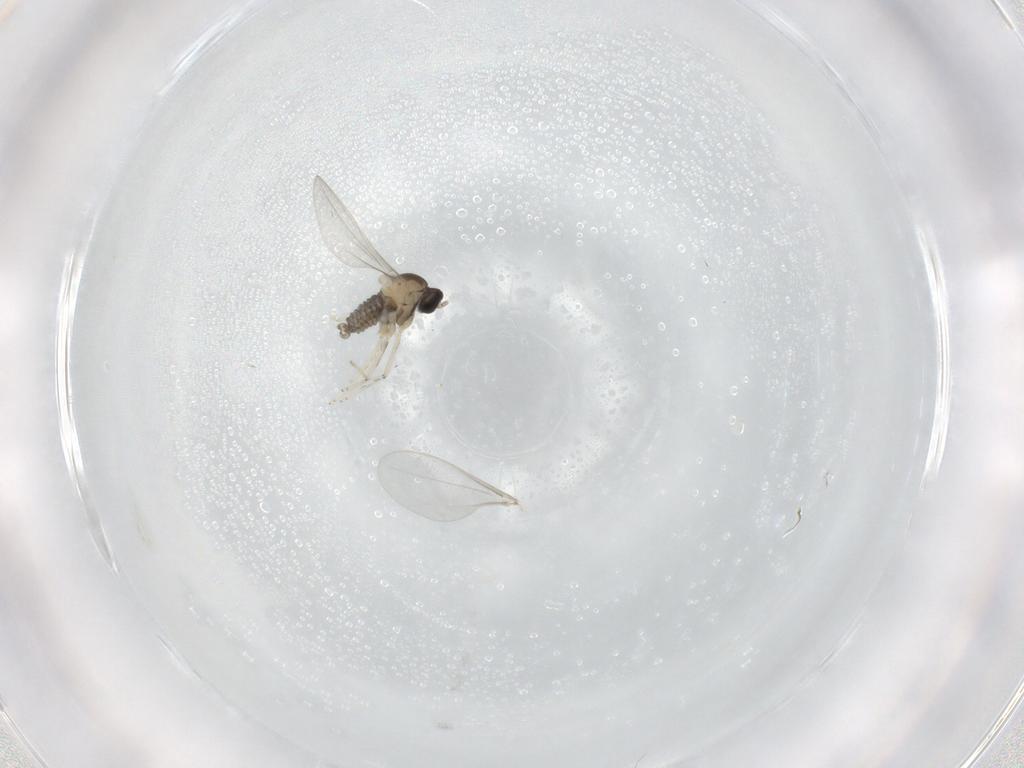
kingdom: Animalia
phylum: Arthropoda
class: Insecta
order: Diptera
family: Cecidomyiidae
